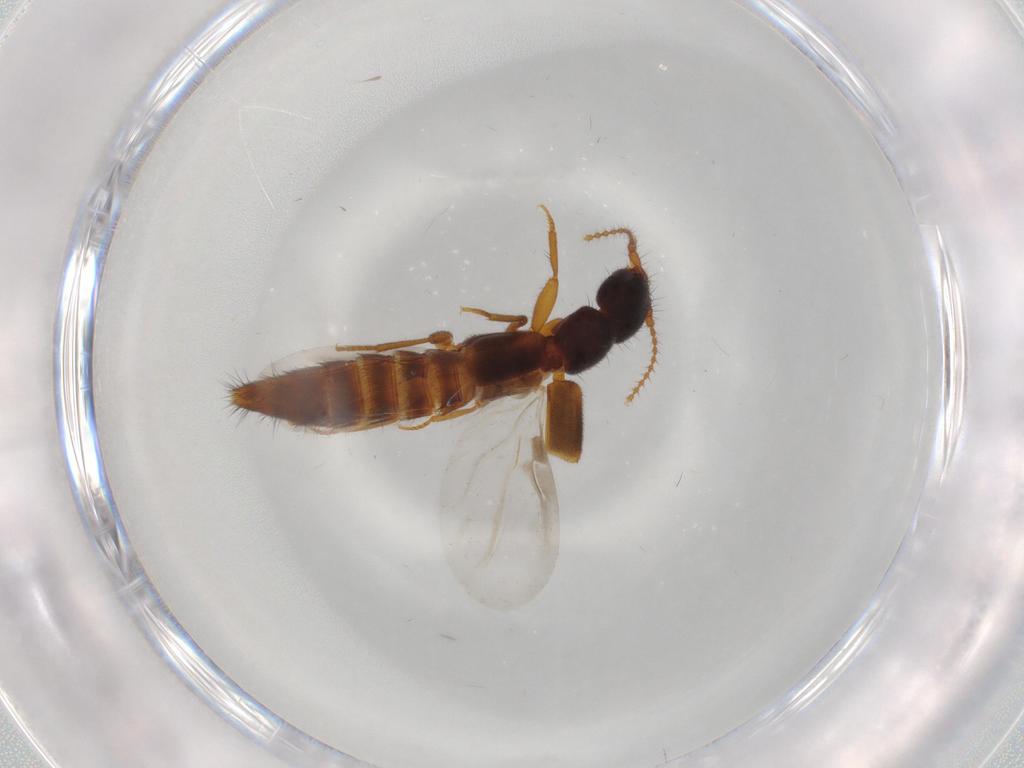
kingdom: Animalia
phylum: Arthropoda
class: Insecta
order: Coleoptera
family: Staphylinidae
